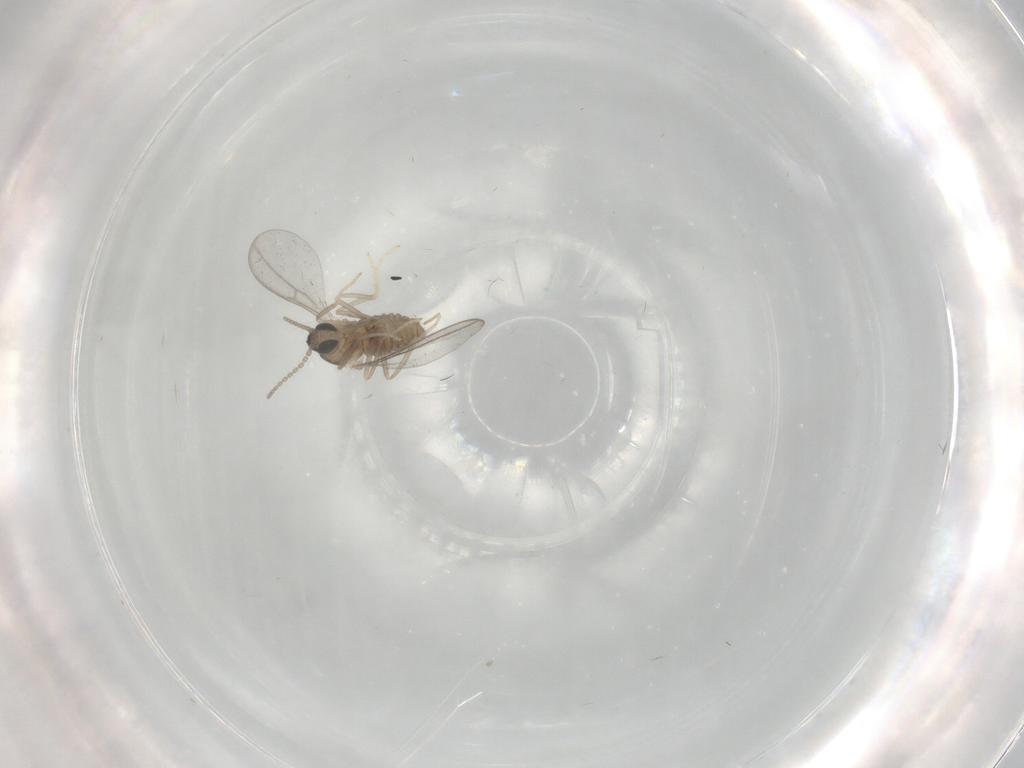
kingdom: Animalia
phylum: Arthropoda
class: Insecta
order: Diptera
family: Cecidomyiidae
